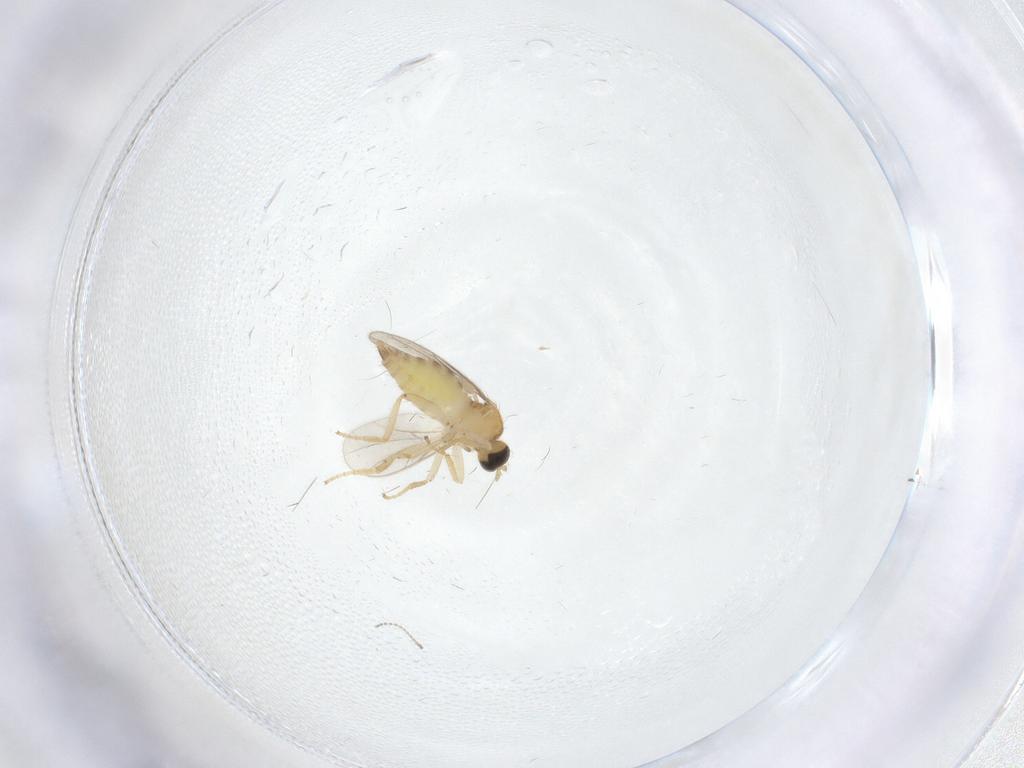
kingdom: Animalia
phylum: Arthropoda
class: Insecta
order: Diptera
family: Hybotidae
